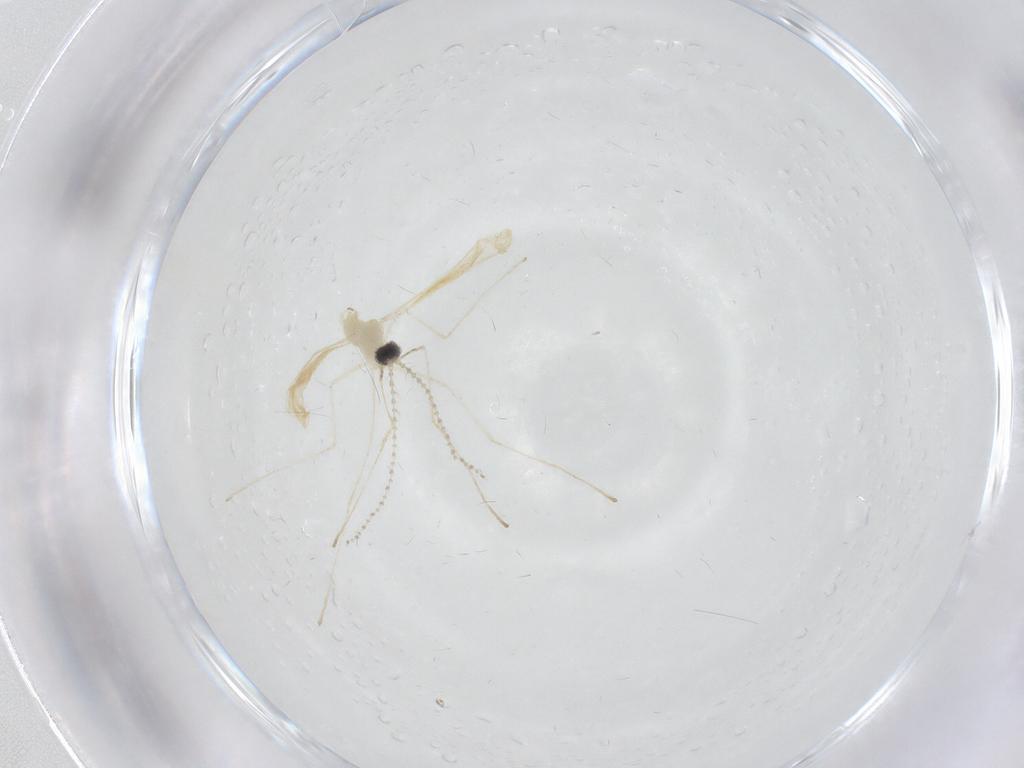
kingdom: Animalia
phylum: Arthropoda
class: Insecta
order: Diptera
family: Cecidomyiidae
